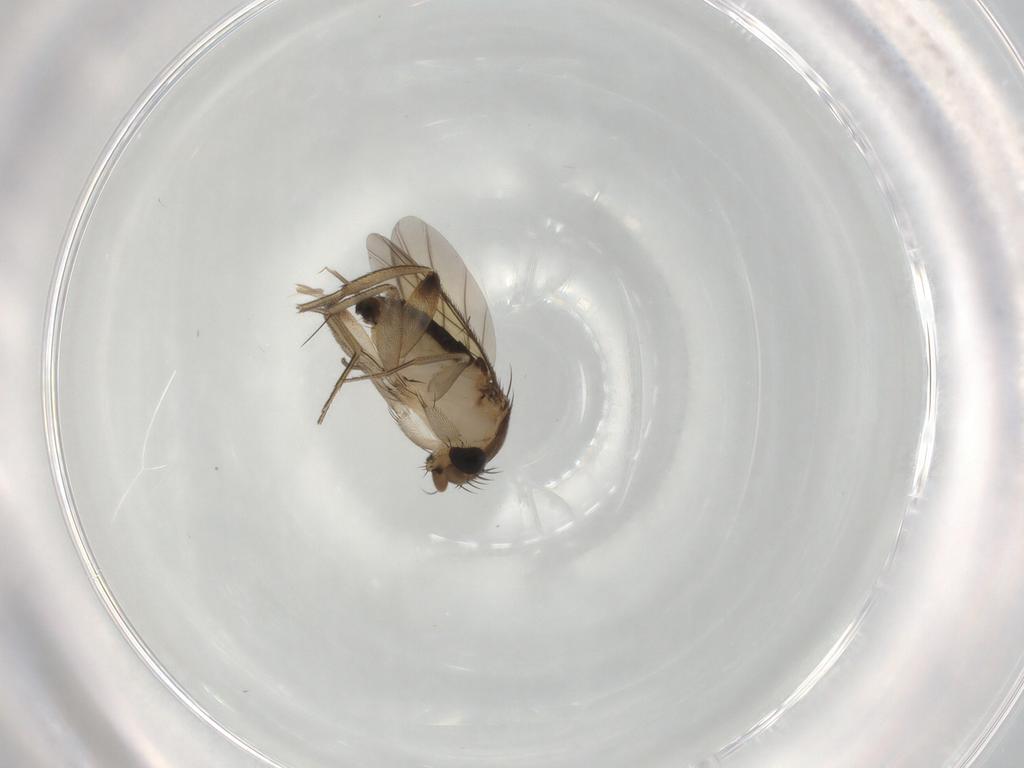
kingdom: Animalia
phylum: Arthropoda
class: Insecta
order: Diptera
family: Phoridae
